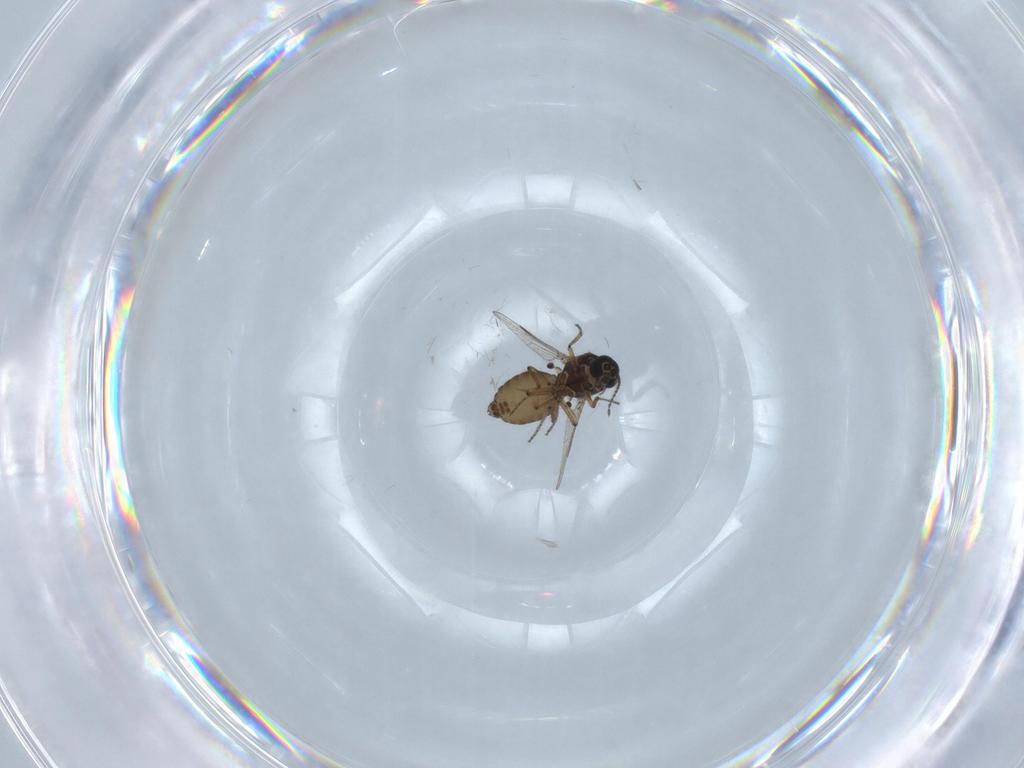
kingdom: Animalia
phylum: Arthropoda
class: Insecta
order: Diptera
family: Ceratopogonidae
